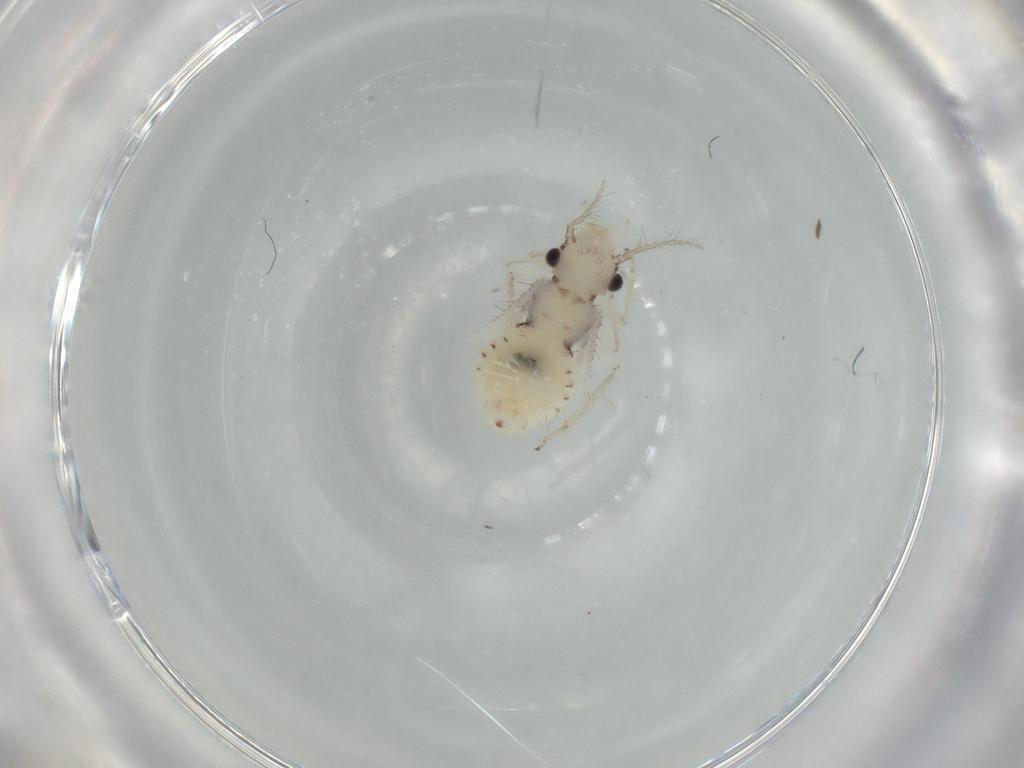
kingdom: Animalia
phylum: Arthropoda
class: Insecta
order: Psocodea
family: Pseudocaeciliidae
